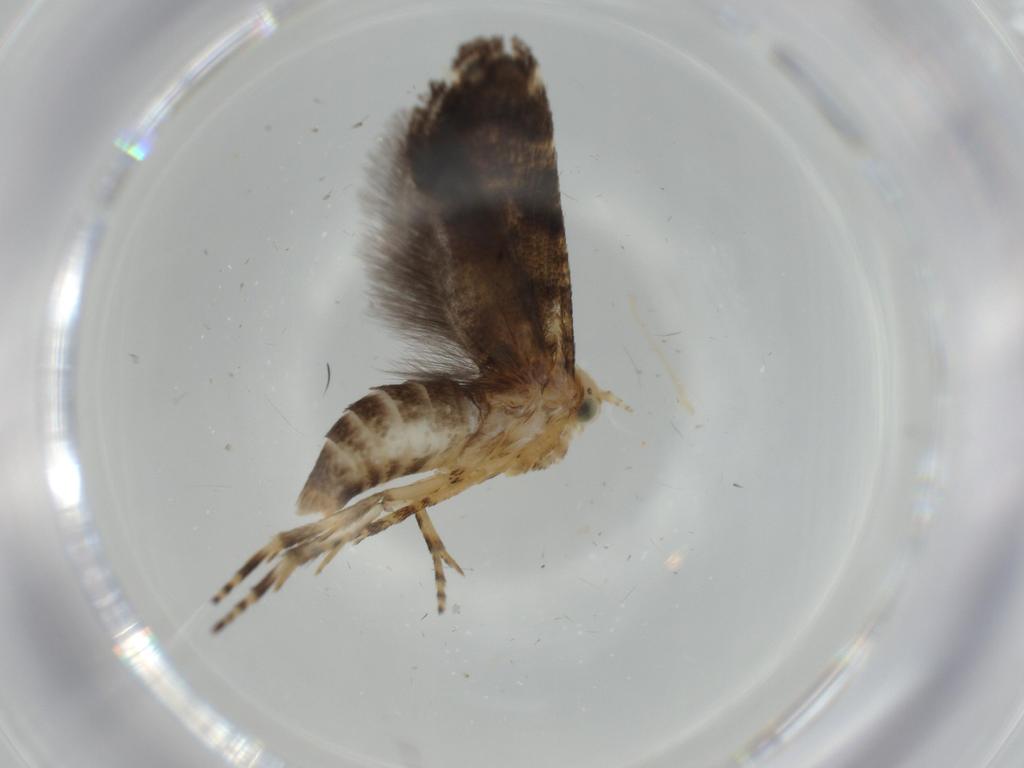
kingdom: Animalia
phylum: Arthropoda
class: Insecta
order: Lepidoptera
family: Glyphipterigidae
